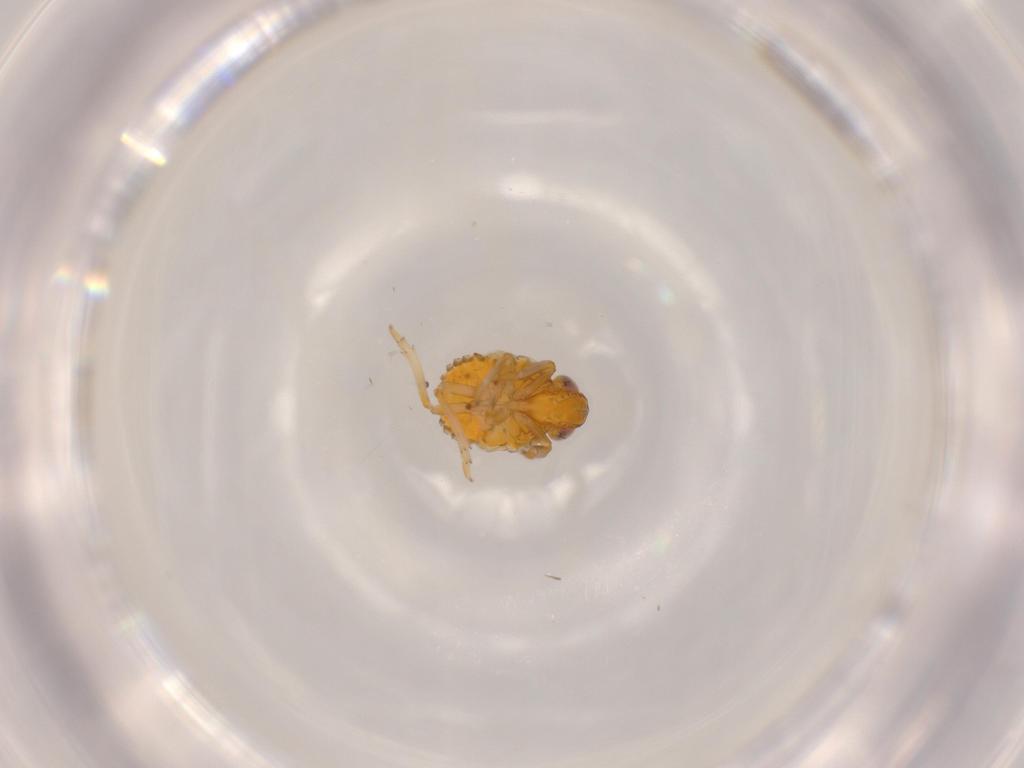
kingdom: Animalia
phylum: Arthropoda
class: Insecta
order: Hemiptera
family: Issidae
